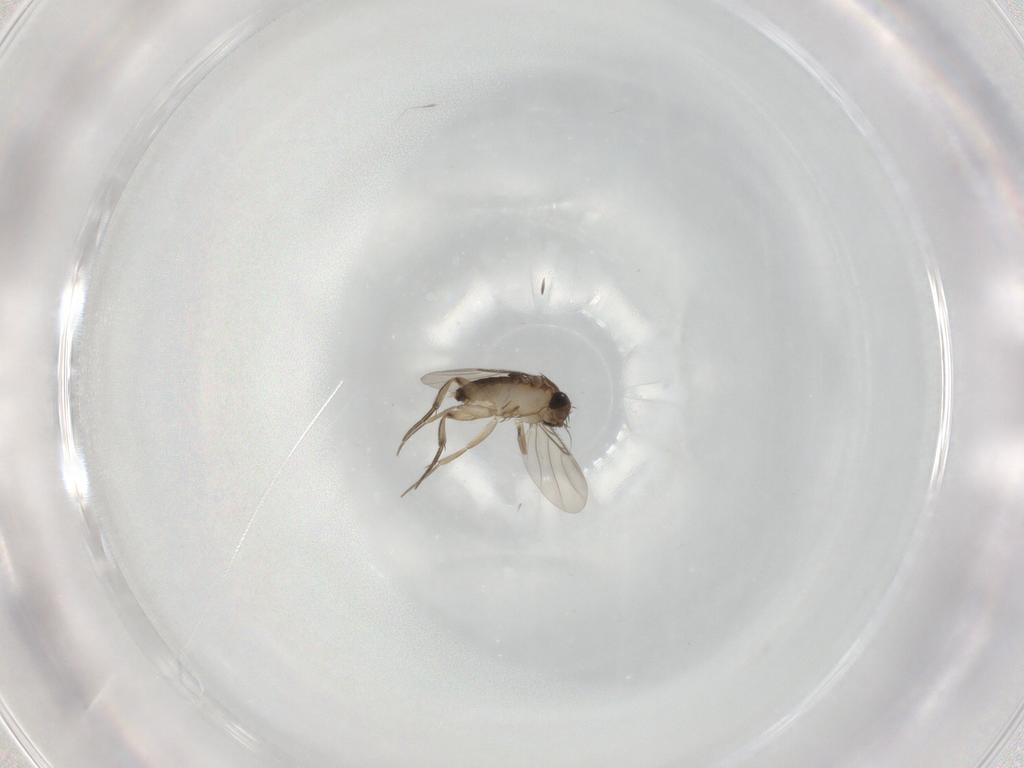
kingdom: Animalia
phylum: Arthropoda
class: Insecta
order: Diptera
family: Phoridae
